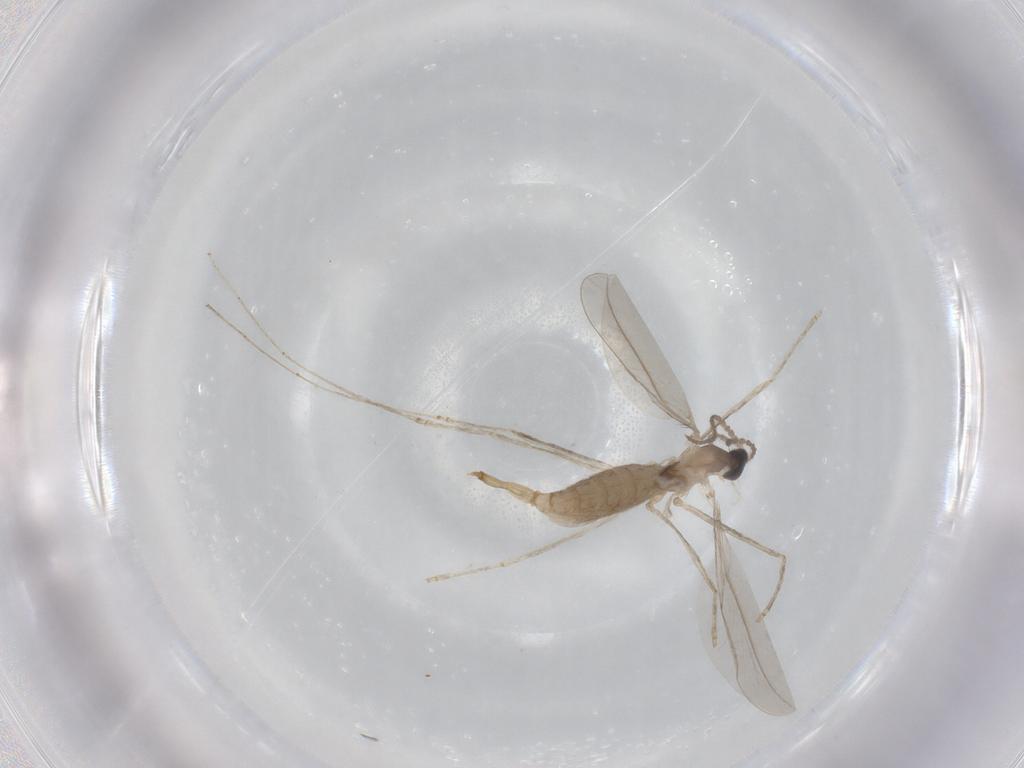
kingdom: Animalia
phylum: Arthropoda
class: Insecta
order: Diptera
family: Cecidomyiidae
